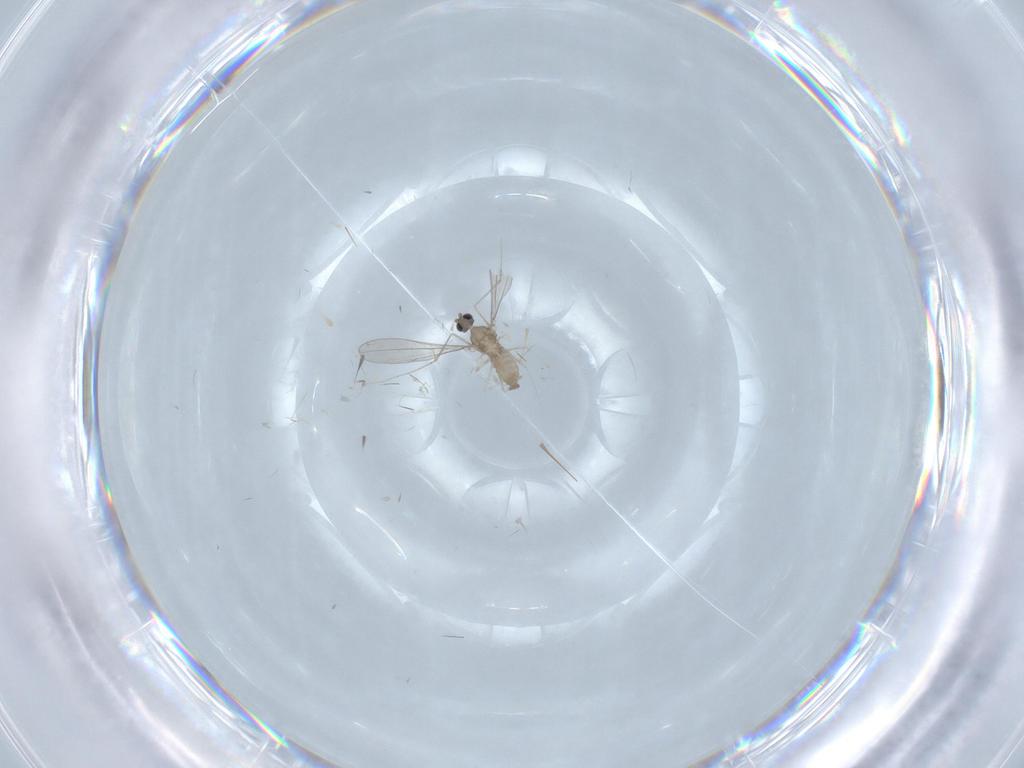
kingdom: Animalia
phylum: Arthropoda
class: Insecta
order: Diptera
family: Cecidomyiidae
